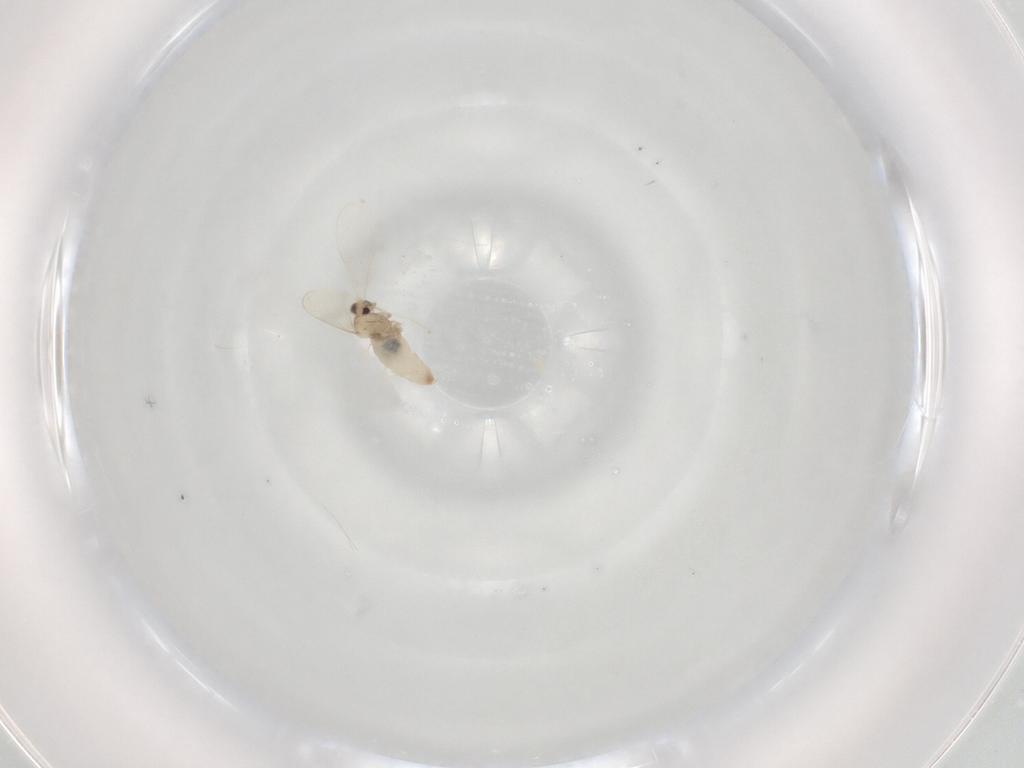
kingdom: Animalia
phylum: Arthropoda
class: Insecta
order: Diptera
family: Cecidomyiidae
